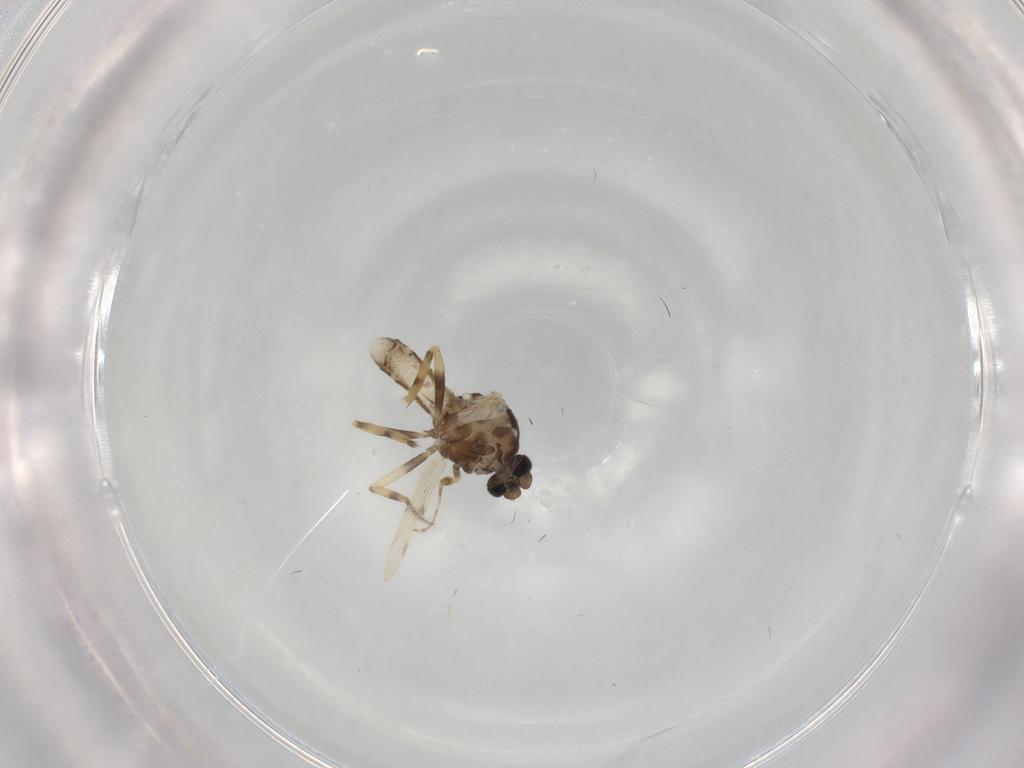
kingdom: Animalia
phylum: Arthropoda
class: Insecta
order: Diptera
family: Ceratopogonidae
